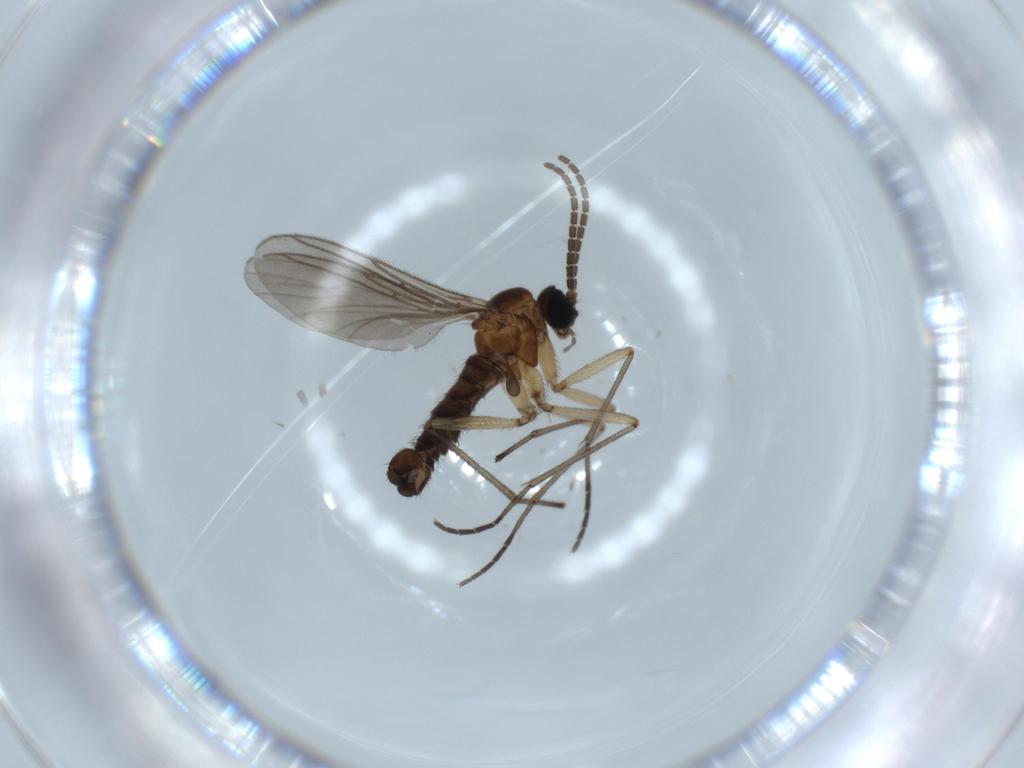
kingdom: Animalia
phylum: Arthropoda
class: Insecta
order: Diptera
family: Sciaridae
